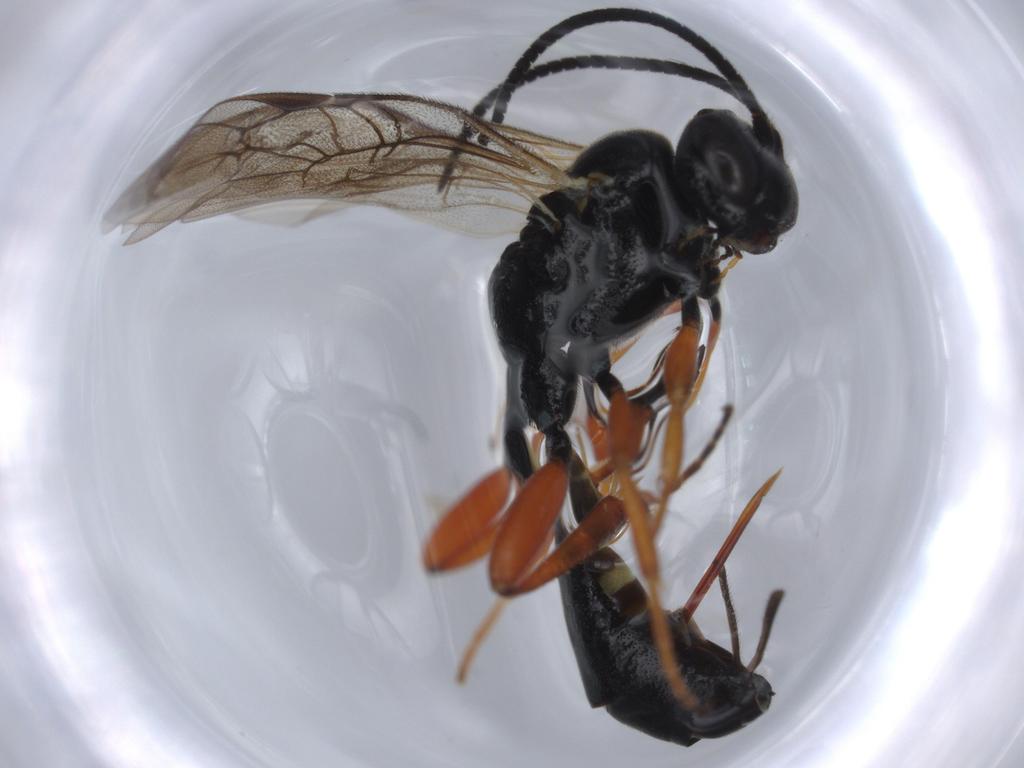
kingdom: Animalia
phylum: Arthropoda
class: Insecta
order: Hymenoptera
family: Ichneumonidae
